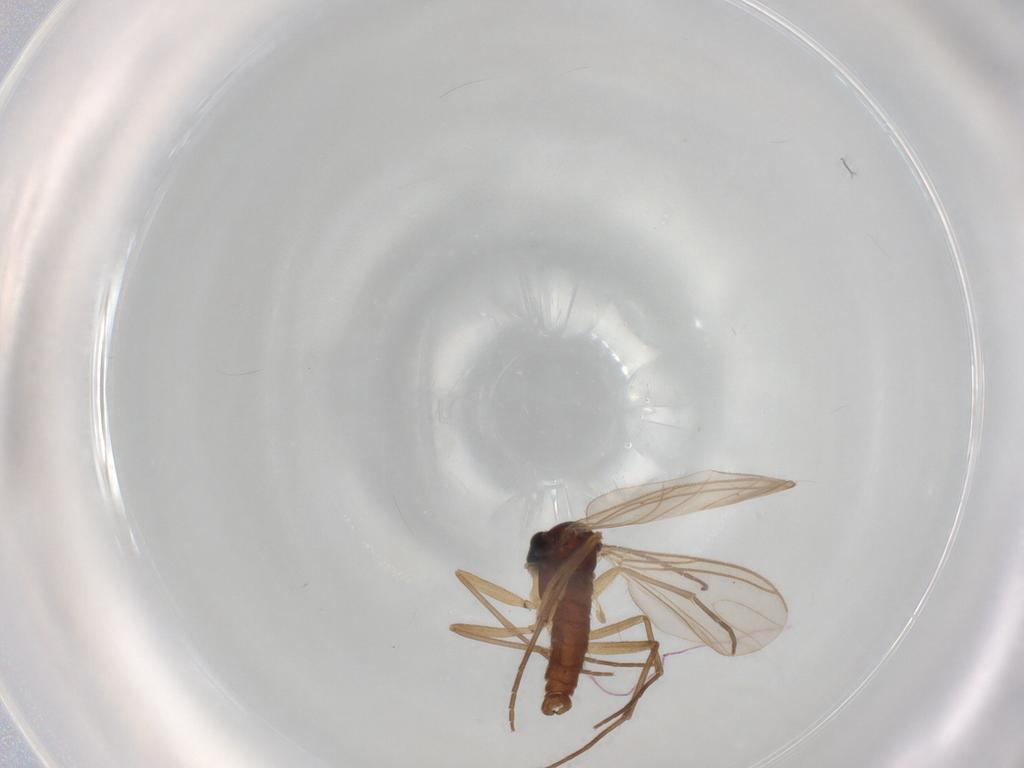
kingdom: Animalia
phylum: Arthropoda
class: Insecta
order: Diptera
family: Sciaridae
